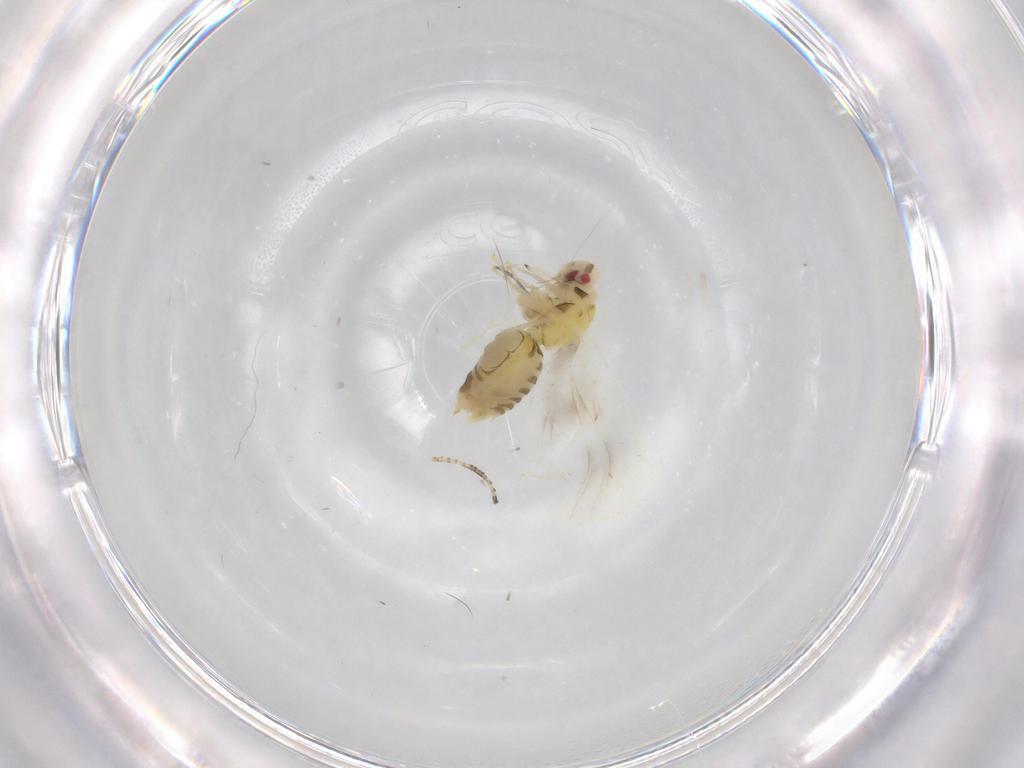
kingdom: Animalia
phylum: Arthropoda
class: Insecta
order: Hemiptera
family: Aleyrodidae
